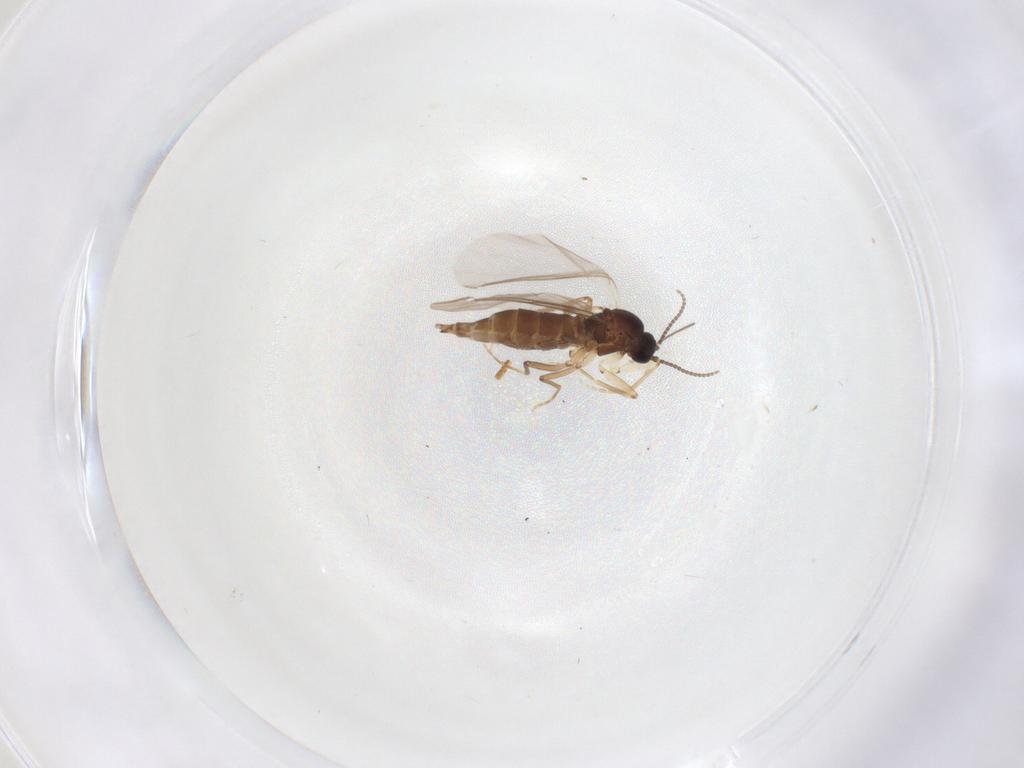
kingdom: Animalia
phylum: Arthropoda
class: Insecta
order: Diptera
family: Sciaridae
